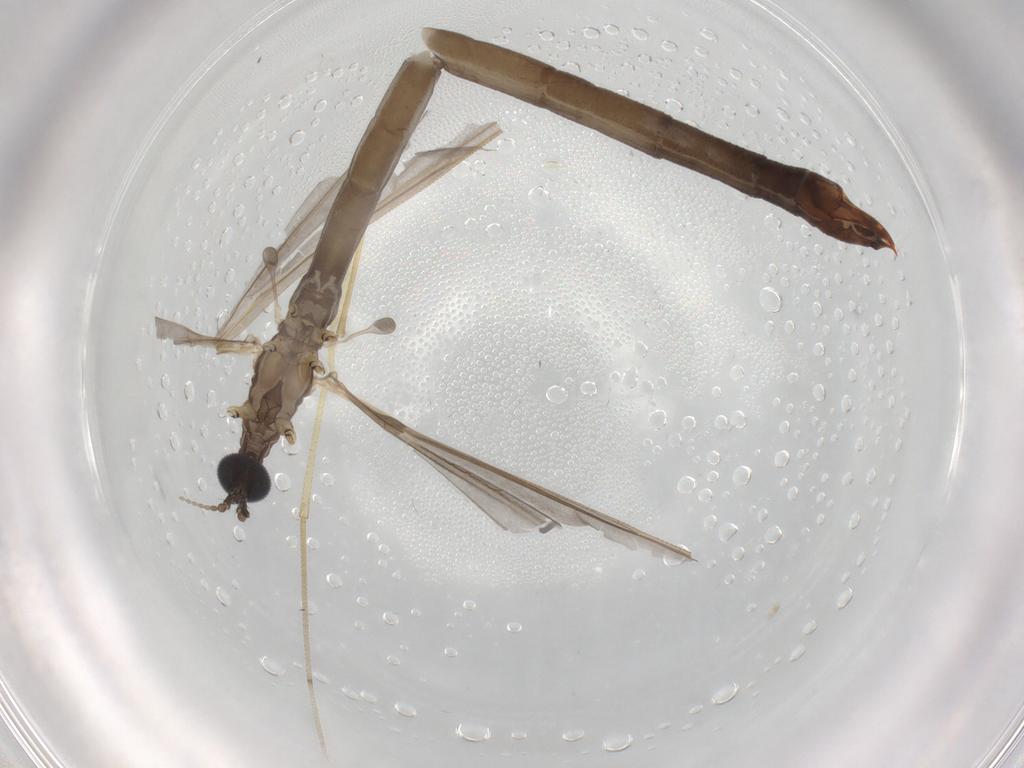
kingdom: Animalia
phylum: Arthropoda
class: Insecta
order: Diptera
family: Limoniidae
